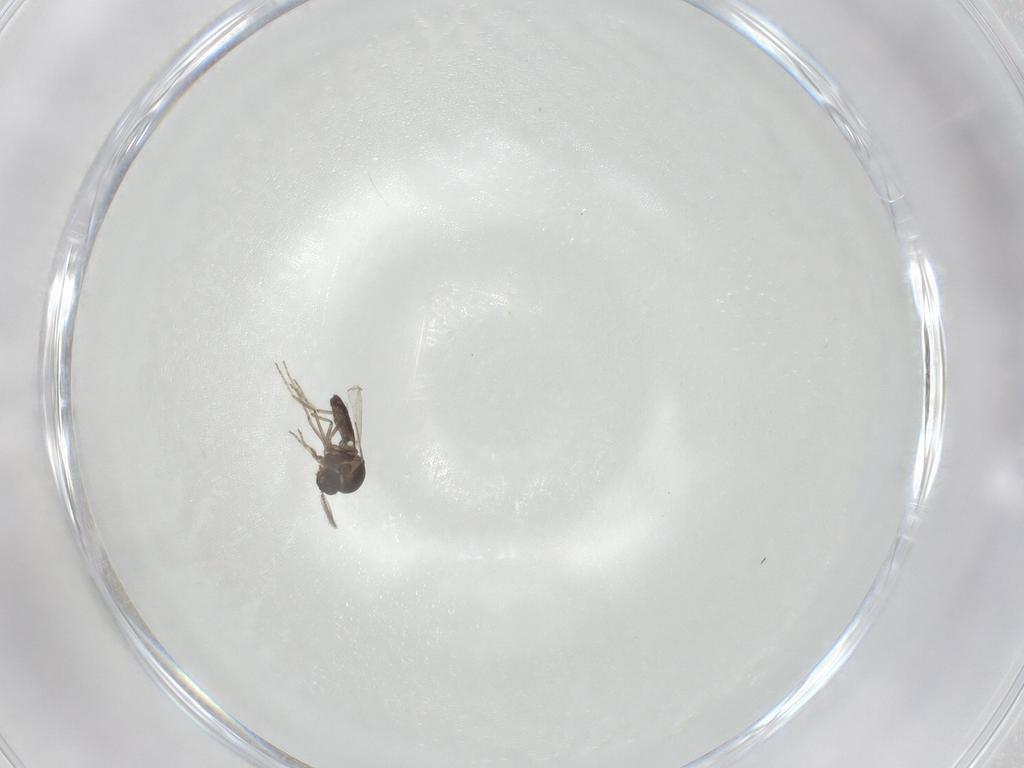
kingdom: Animalia
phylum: Arthropoda
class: Insecta
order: Diptera
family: Ceratopogonidae
